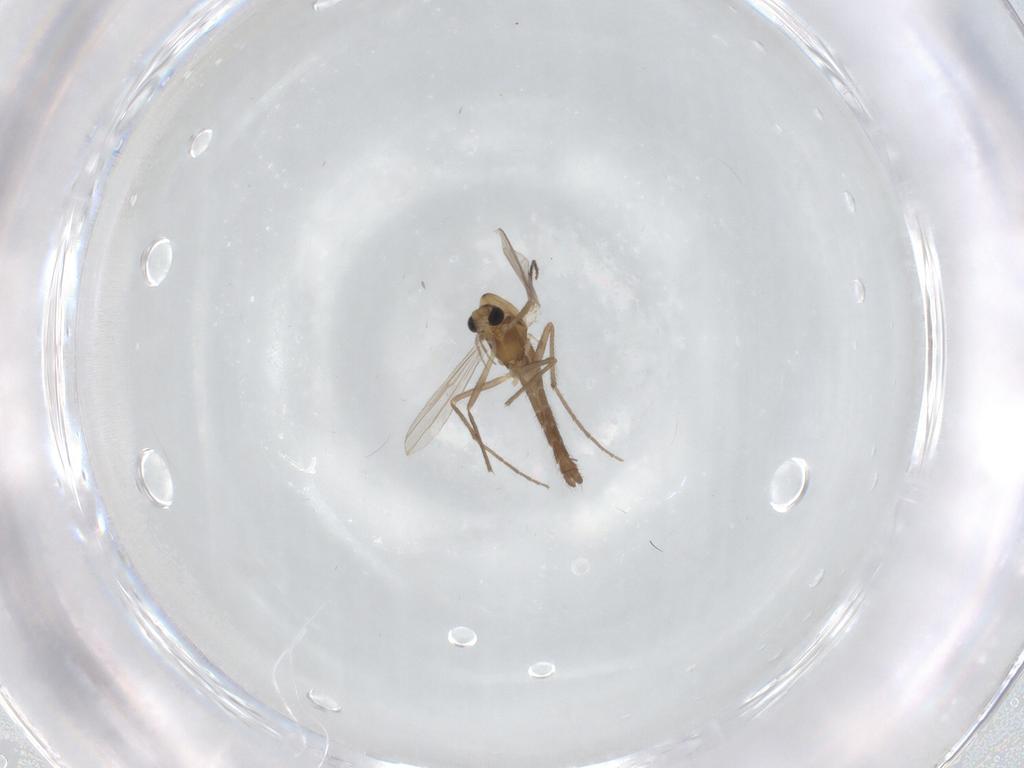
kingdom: Animalia
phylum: Arthropoda
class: Insecta
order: Diptera
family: Chironomidae
